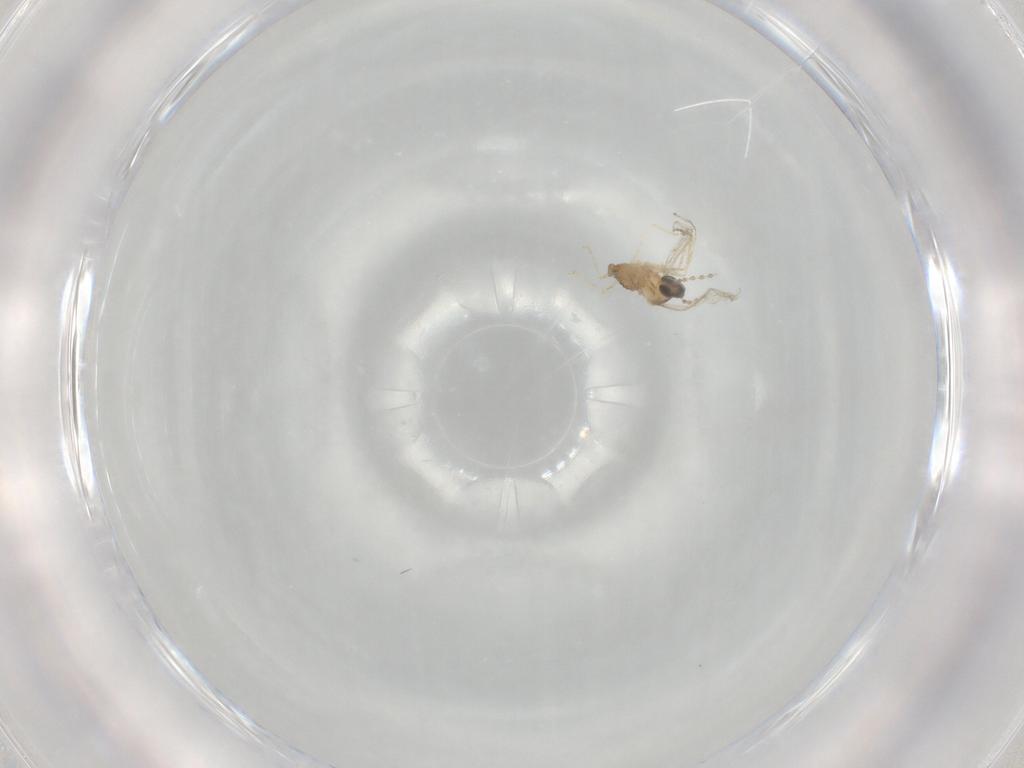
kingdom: Animalia
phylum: Arthropoda
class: Insecta
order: Diptera
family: Cecidomyiidae
